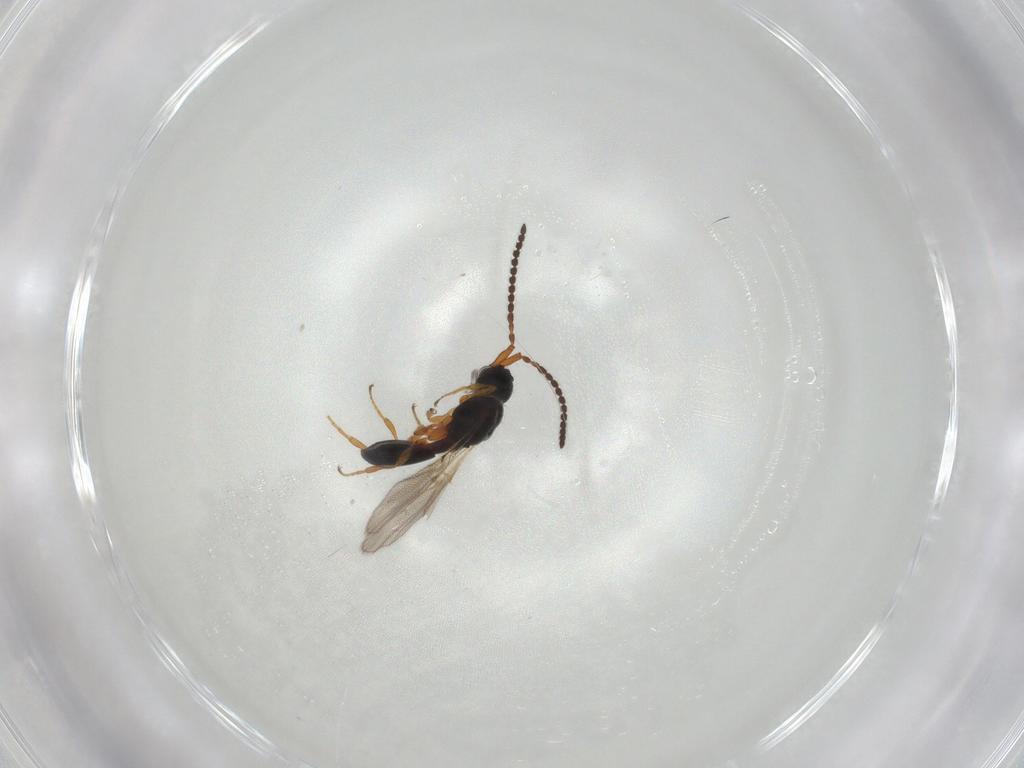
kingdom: Animalia
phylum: Arthropoda
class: Insecta
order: Hymenoptera
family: Diapriidae
